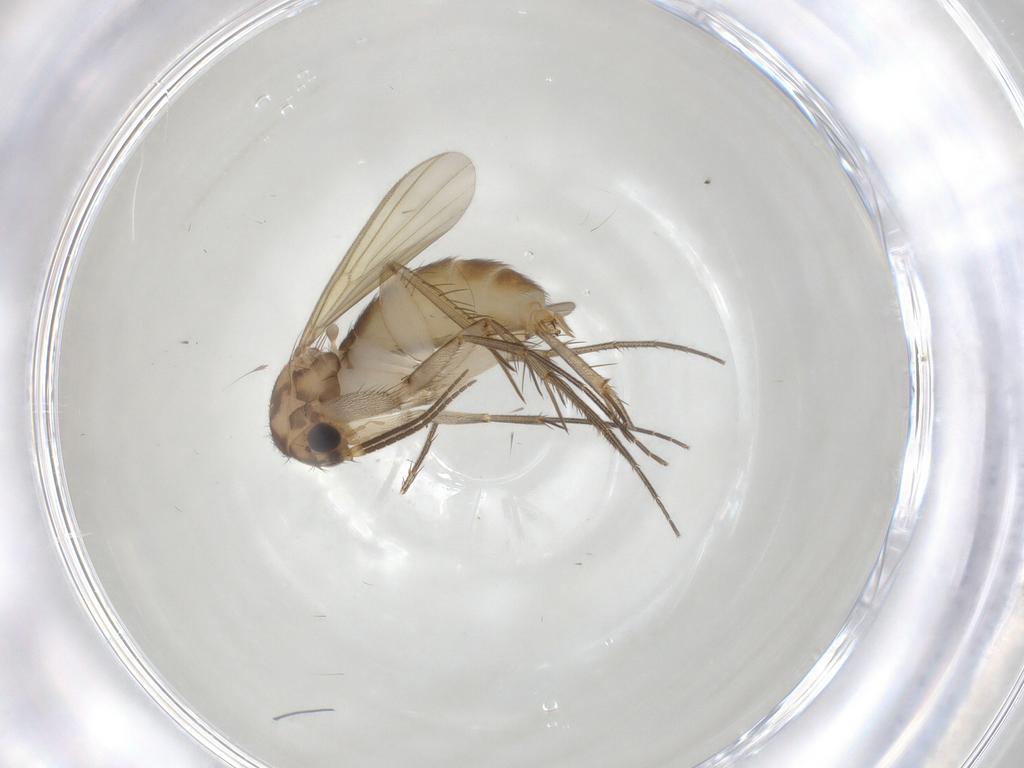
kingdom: Animalia
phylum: Arthropoda
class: Insecta
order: Diptera
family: Mycetophilidae
